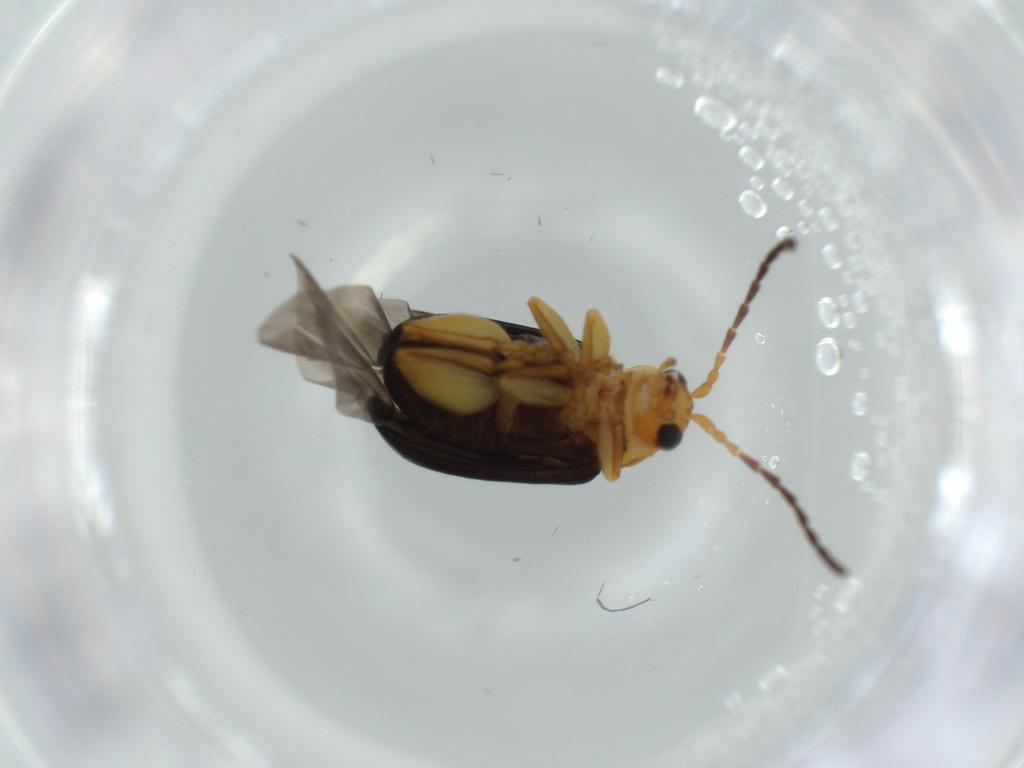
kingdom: Animalia
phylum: Arthropoda
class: Insecta
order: Coleoptera
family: Chrysomelidae
